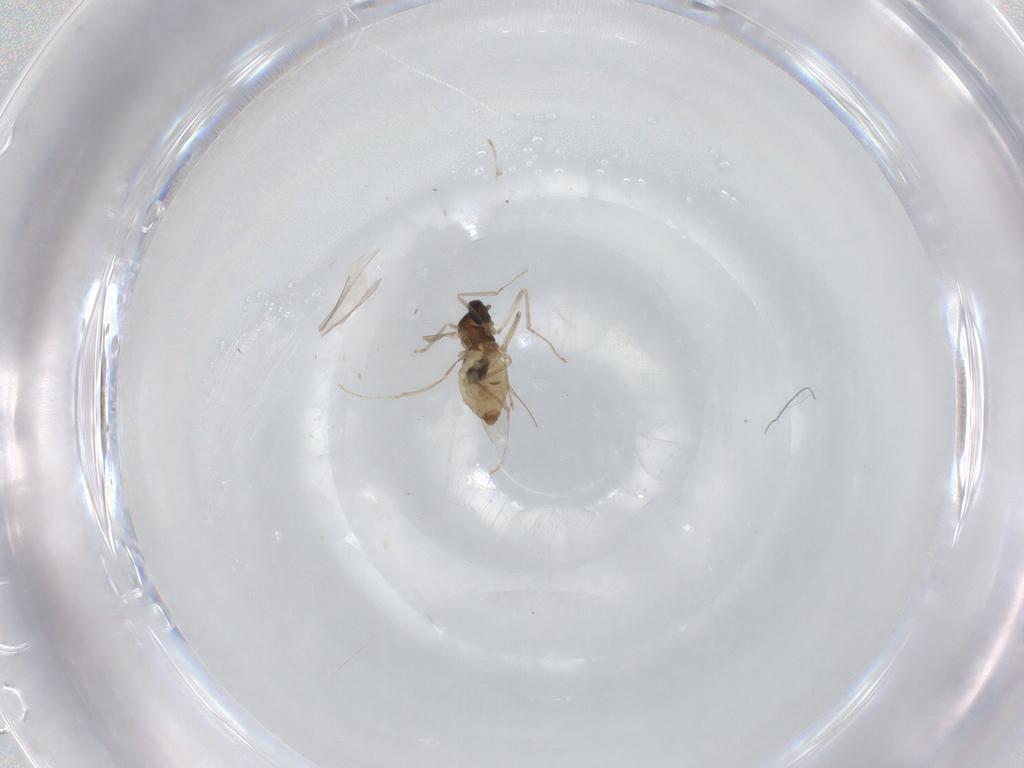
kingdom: Animalia
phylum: Arthropoda
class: Insecta
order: Diptera
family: Cecidomyiidae
